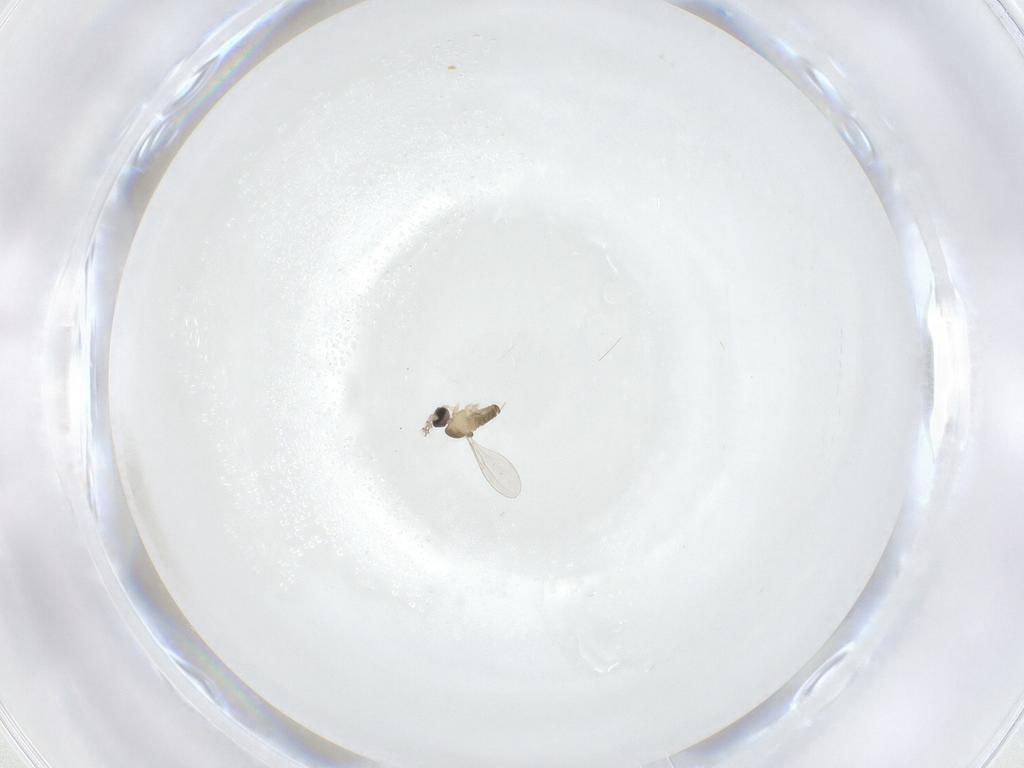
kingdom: Animalia
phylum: Arthropoda
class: Insecta
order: Diptera
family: Cecidomyiidae
